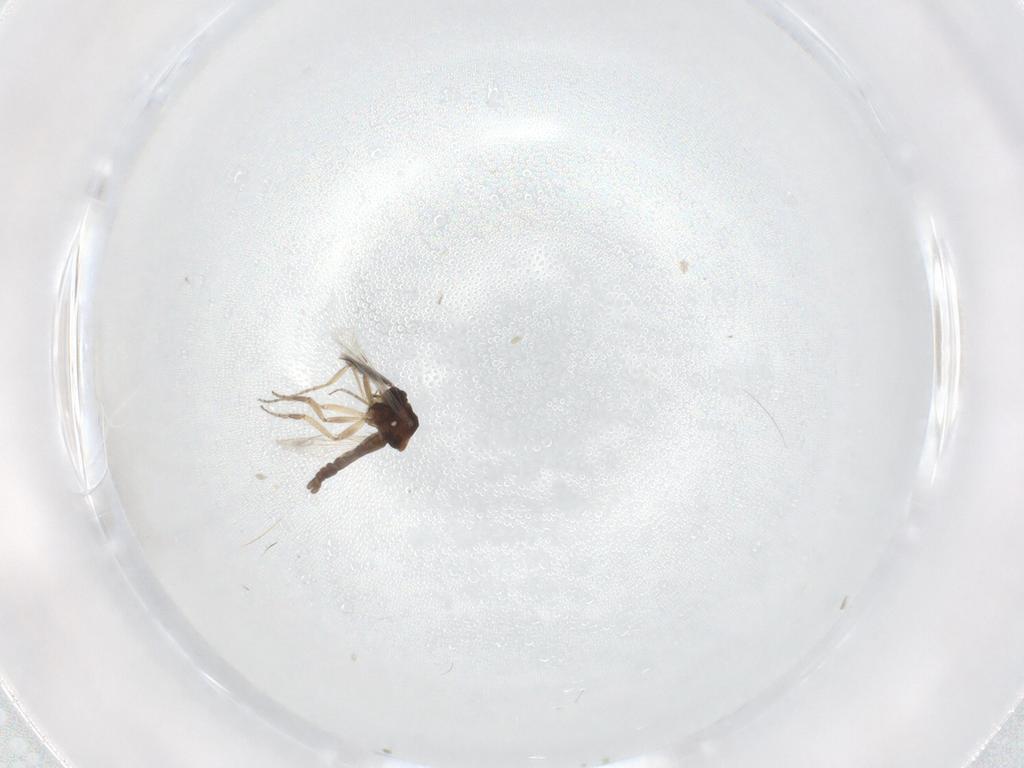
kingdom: Animalia
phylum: Arthropoda
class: Insecta
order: Diptera
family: Ceratopogonidae
